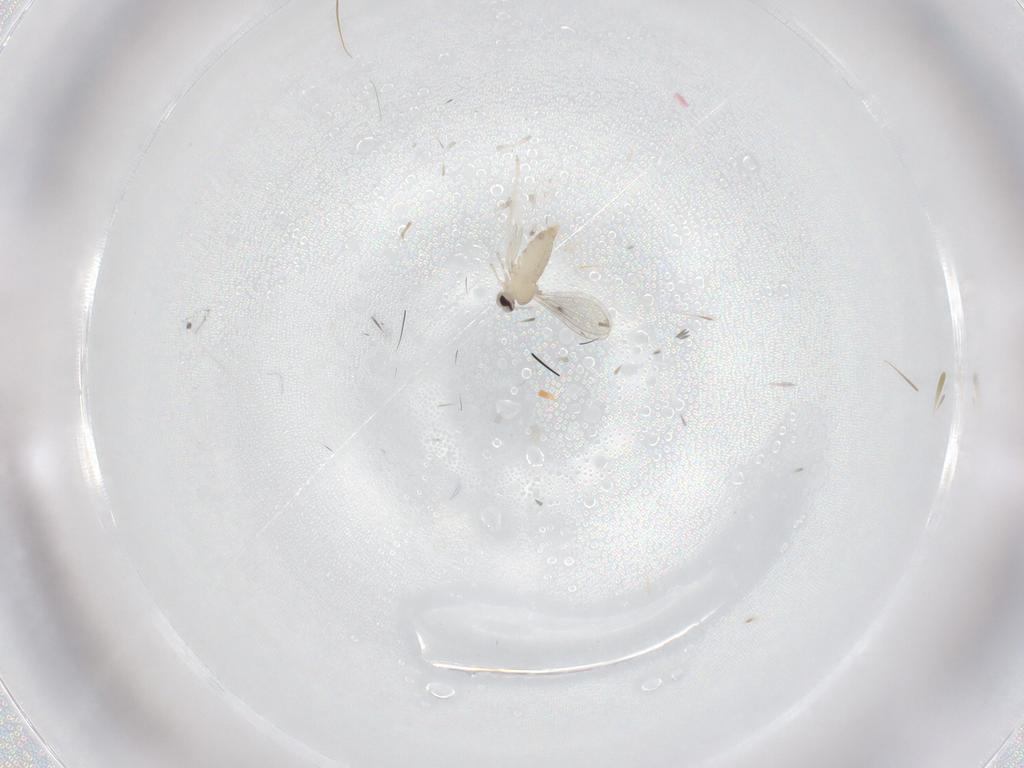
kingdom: Animalia
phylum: Arthropoda
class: Insecta
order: Diptera
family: Cecidomyiidae
